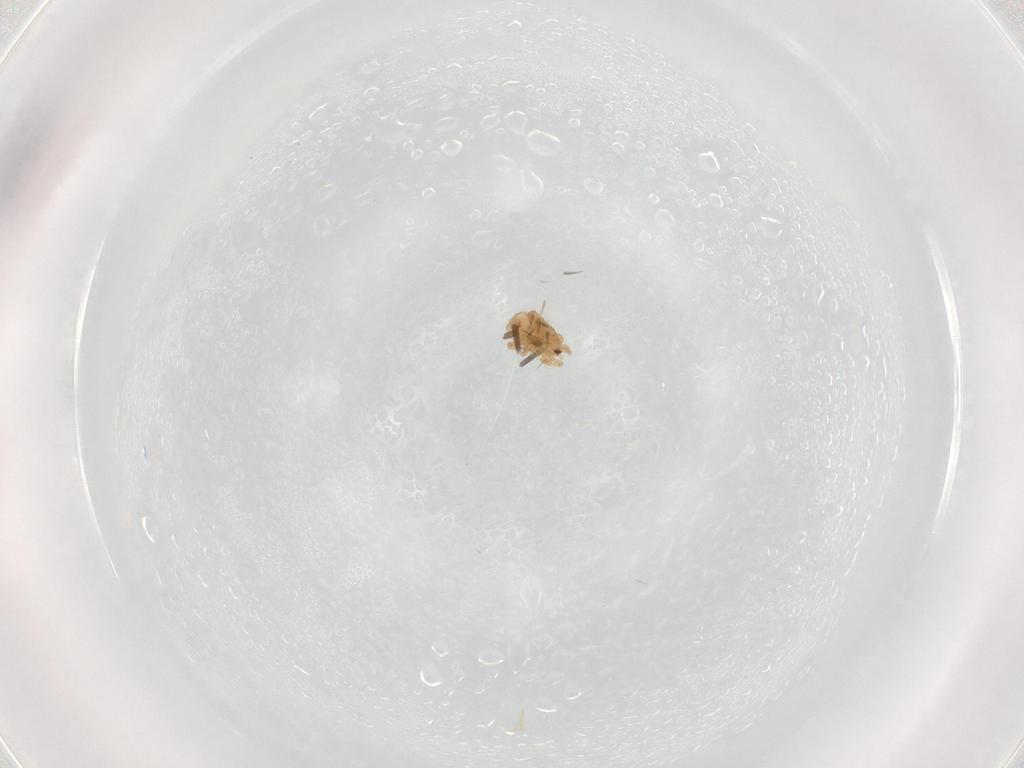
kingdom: Animalia
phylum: Arthropoda
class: Arachnida
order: Mesostigmata
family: Halolaelapidae
